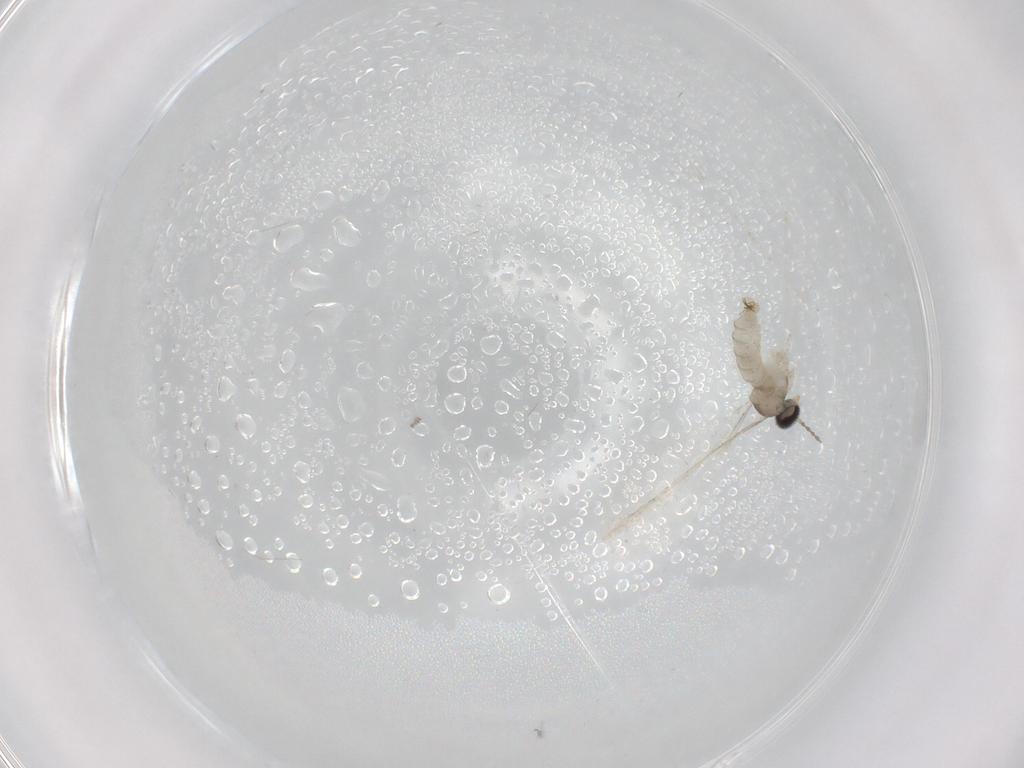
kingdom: Animalia
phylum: Arthropoda
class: Insecta
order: Diptera
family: Cecidomyiidae
